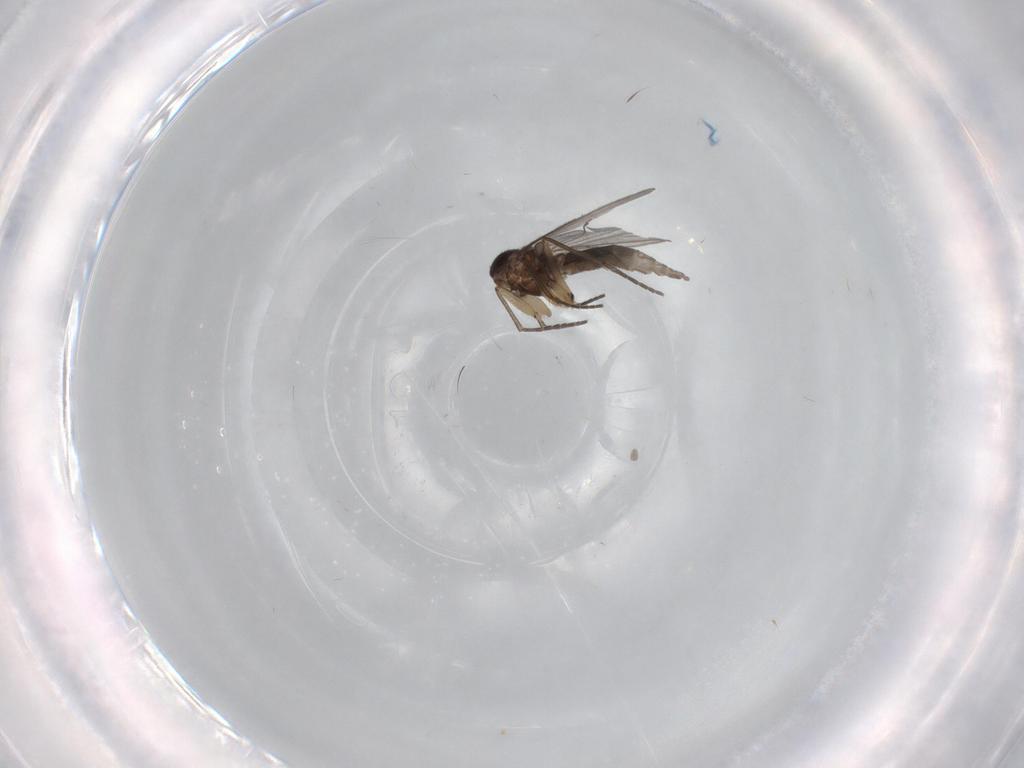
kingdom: Animalia
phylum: Arthropoda
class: Insecta
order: Diptera
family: Sciaridae
